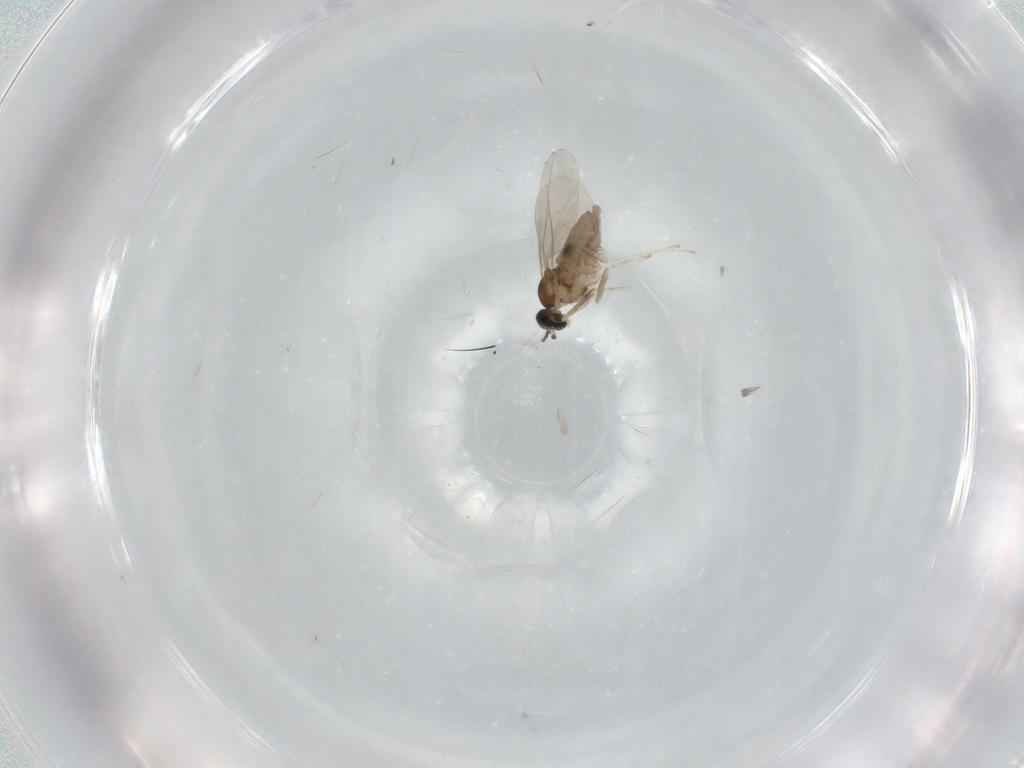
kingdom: Animalia
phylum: Arthropoda
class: Insecta
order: Diptera
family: Cecidomyiidae
